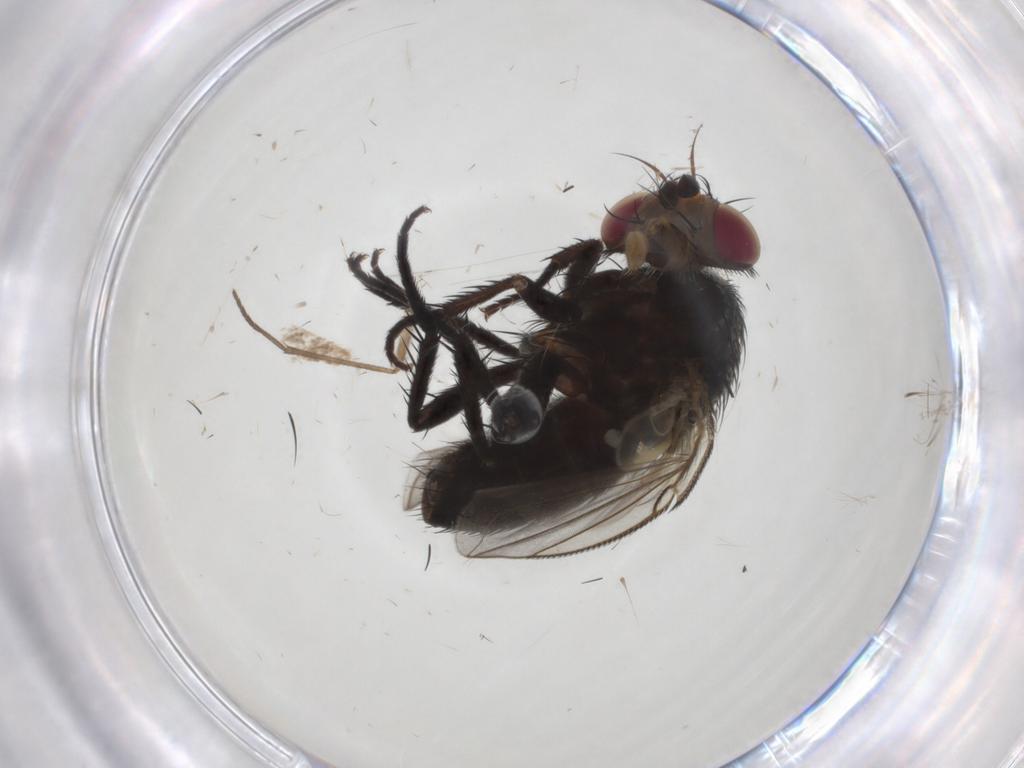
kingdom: Animalia
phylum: Arthropoda
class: Insecta
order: Diptera
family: Tachinidae
